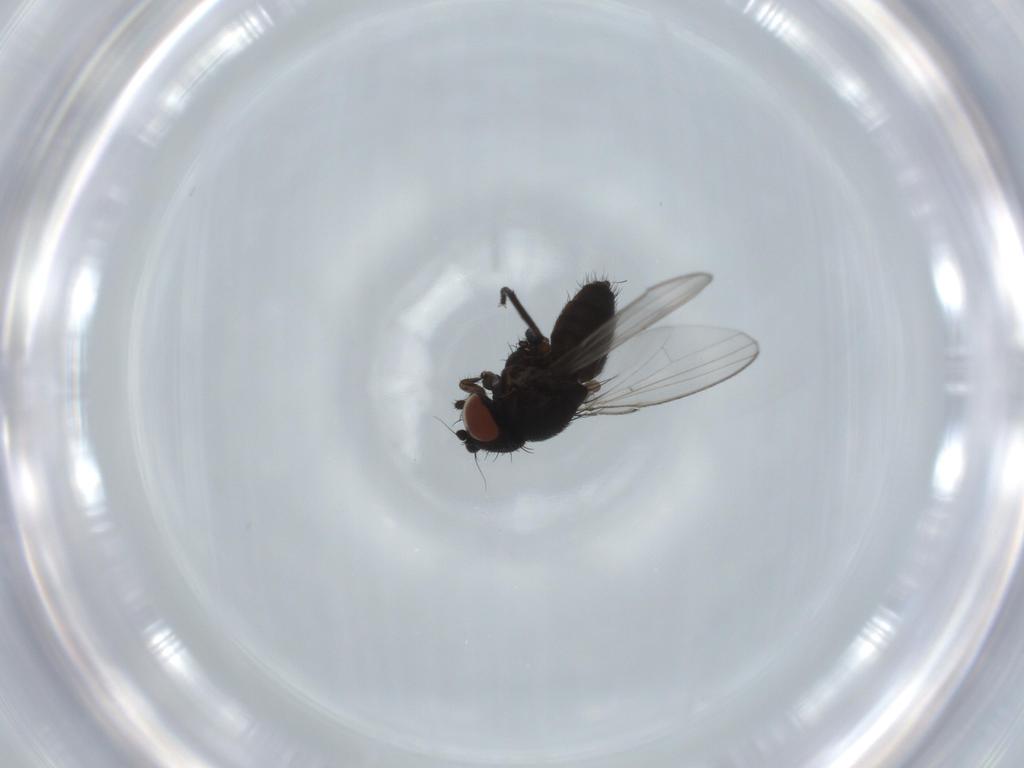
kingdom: Animalia
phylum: Arthropoda
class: Insecta
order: Diptera
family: Milichiidae
